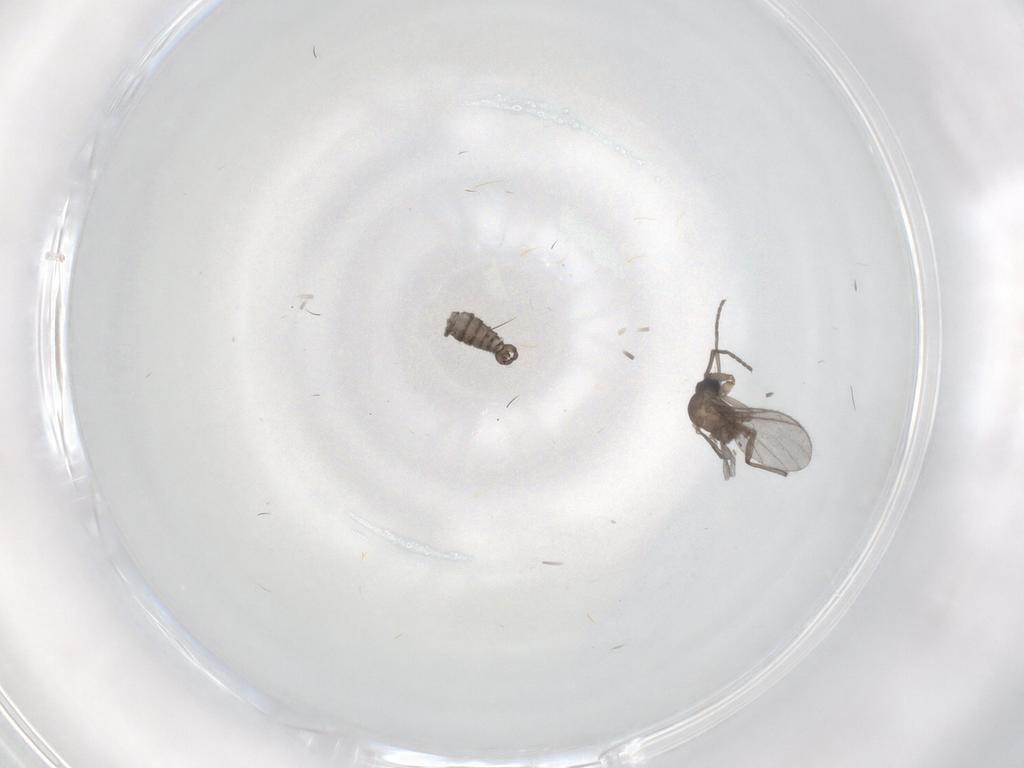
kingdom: Animalia
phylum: Arthropoda
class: Insecta
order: Diptera
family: Sciaridae
